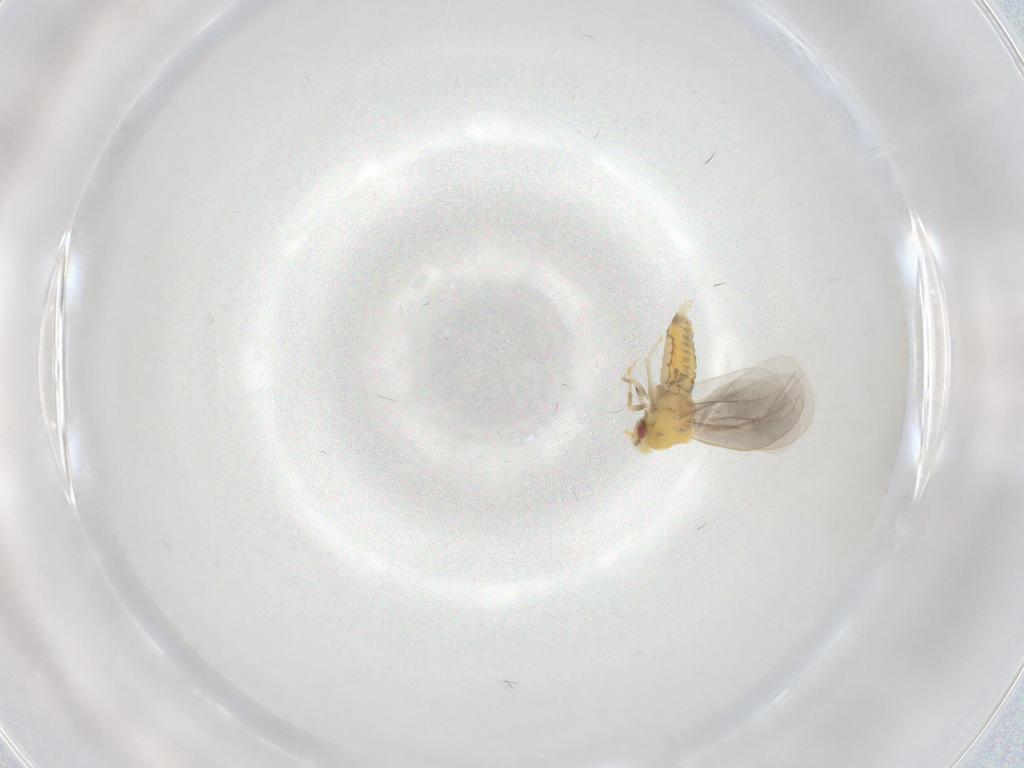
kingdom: Animalia
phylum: Arthropoda
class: Insecta
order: Hemiptera
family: Aleyrodidae
